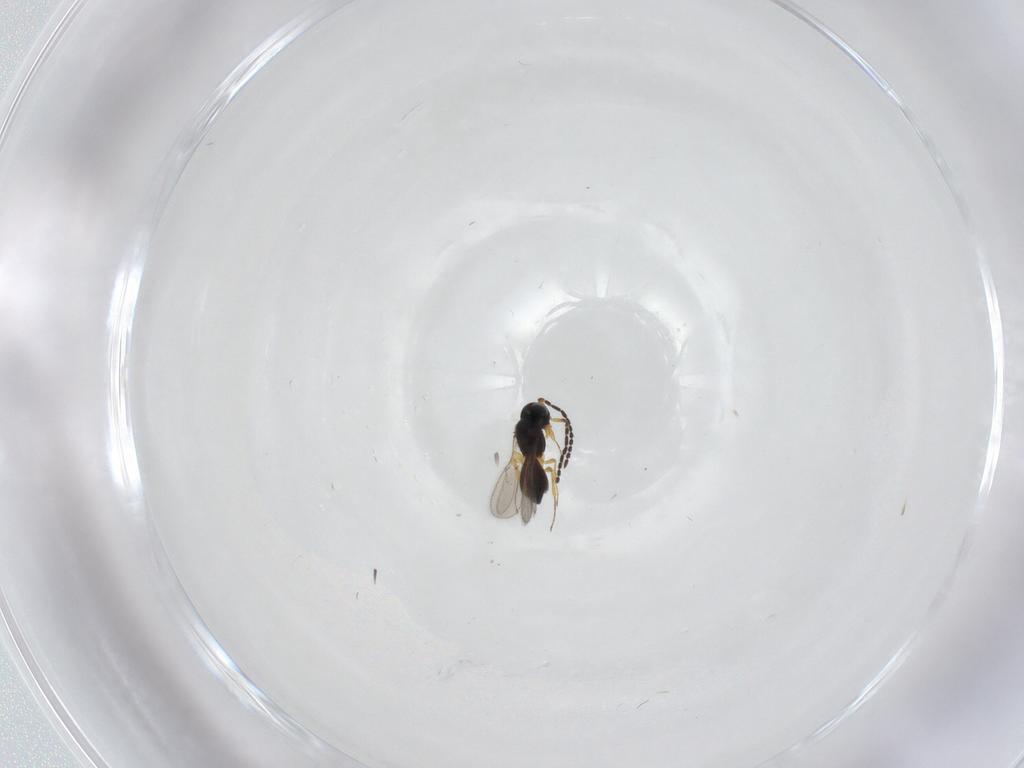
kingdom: Animalia
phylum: Arthropoda
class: Insecta
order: Hymenoptera
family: Scelionidae
